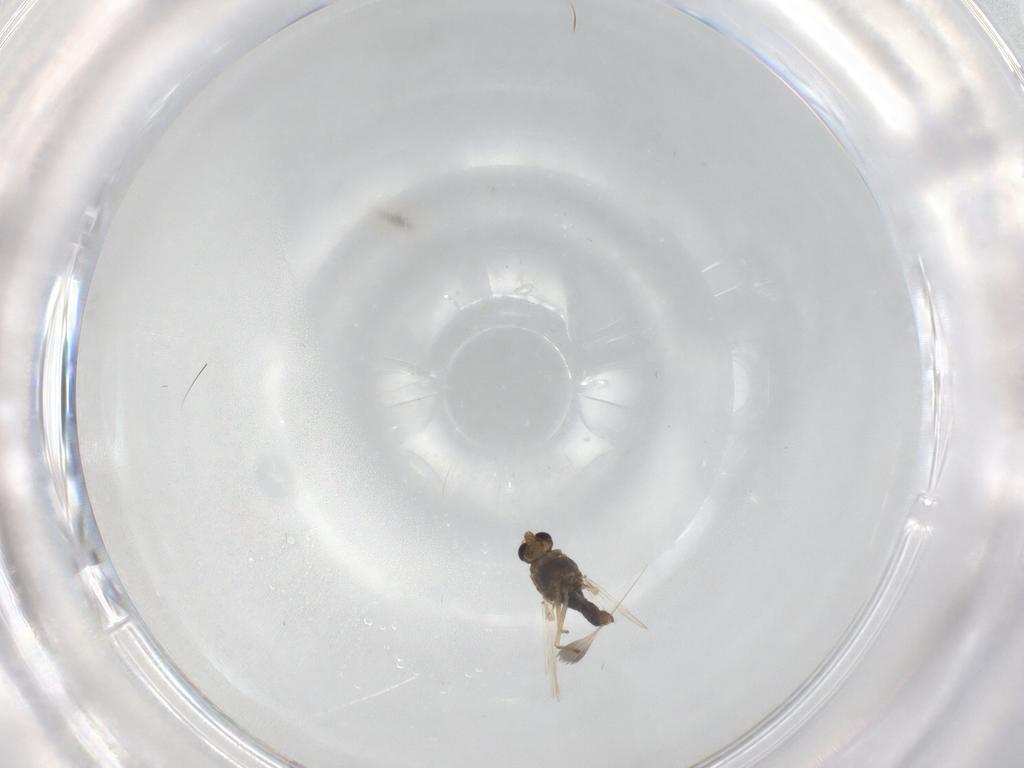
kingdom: Animalia
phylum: Arthropoda
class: Insecta
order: Diptera
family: Chironomidae
